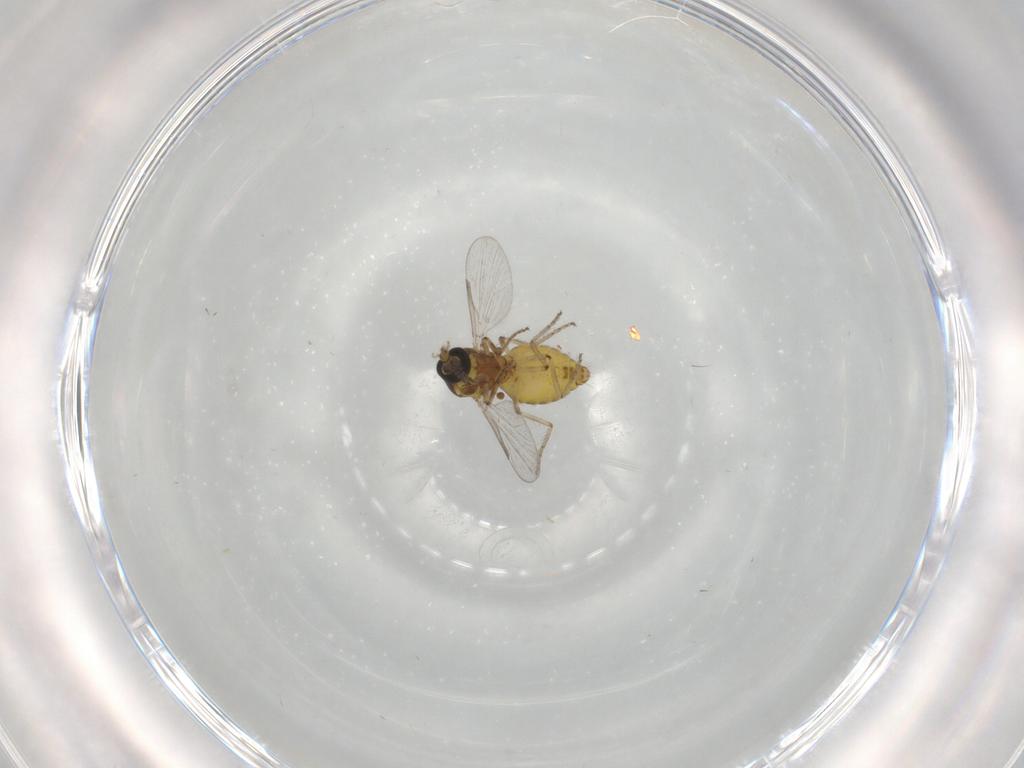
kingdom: Animalia
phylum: Arthropoda
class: Insecta
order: Diptera
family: Ceratopogonidae
